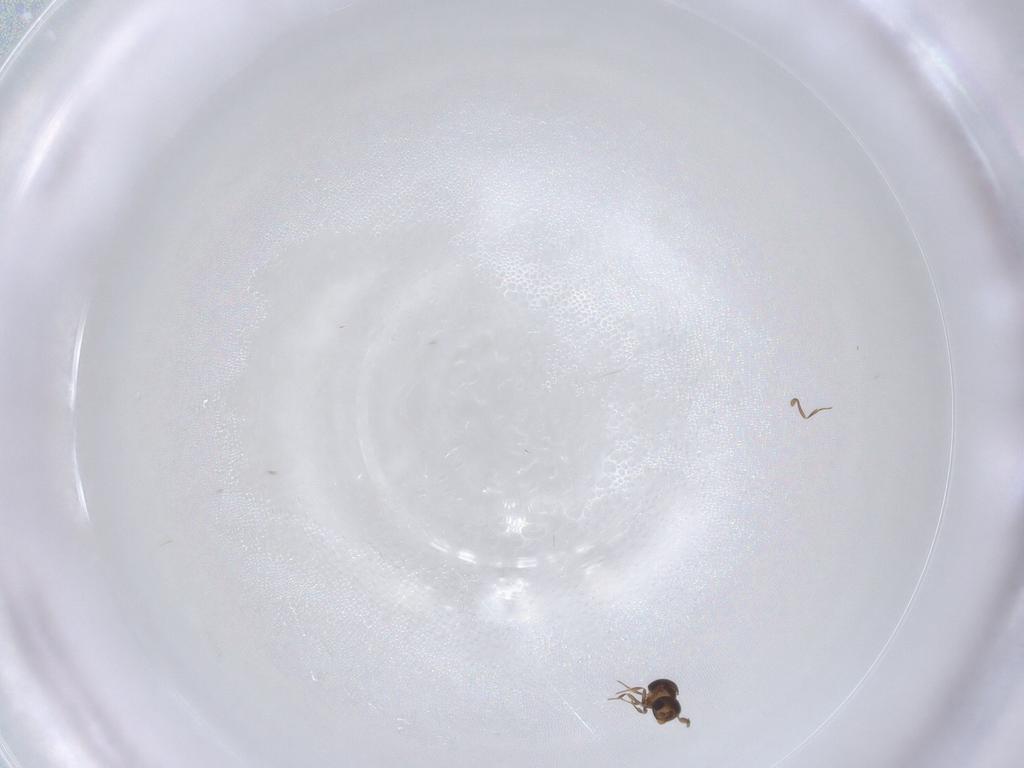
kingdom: Animalia
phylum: Arthropoda
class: Insecta
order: Hymenoptera
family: Scelionidae
